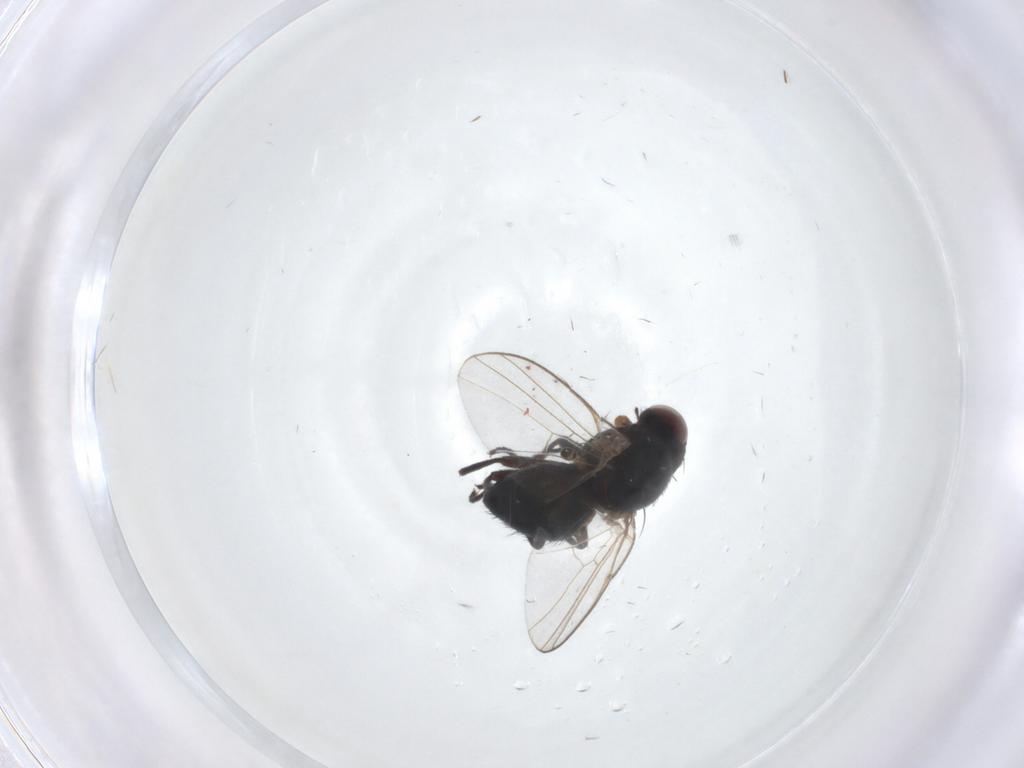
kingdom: Animalia
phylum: Arthropoda
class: Insecta
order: Diptera
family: Agromyzidae
